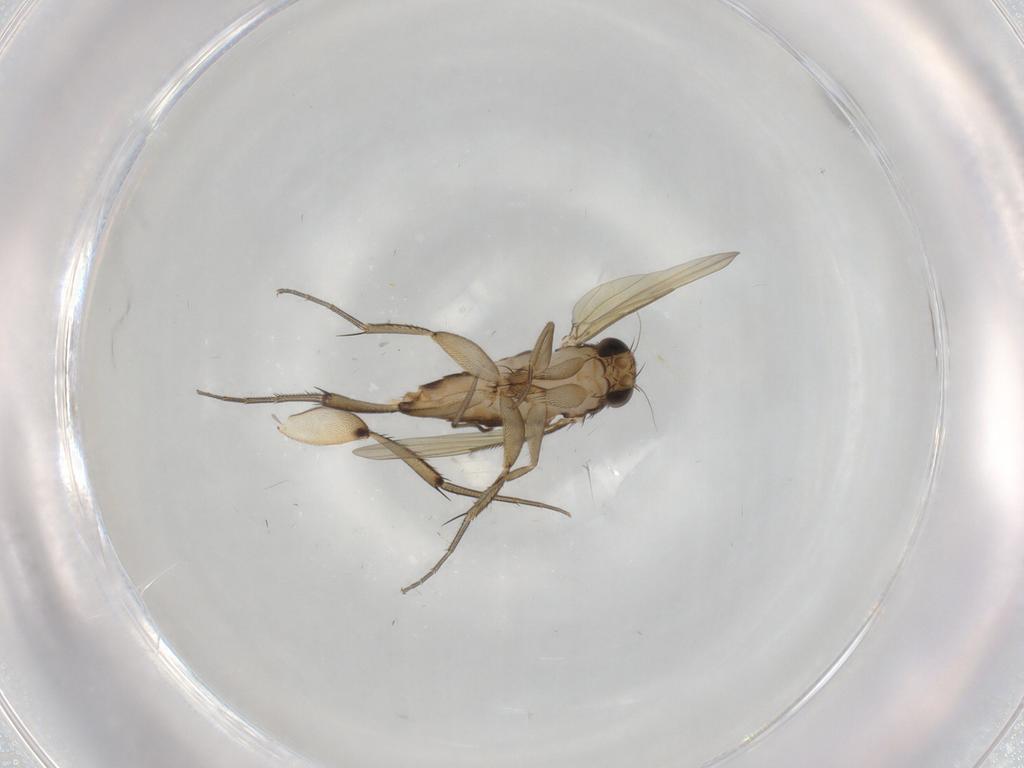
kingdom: Animalia
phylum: Arthropoda
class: Insecta
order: Diptera
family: Phoridae
